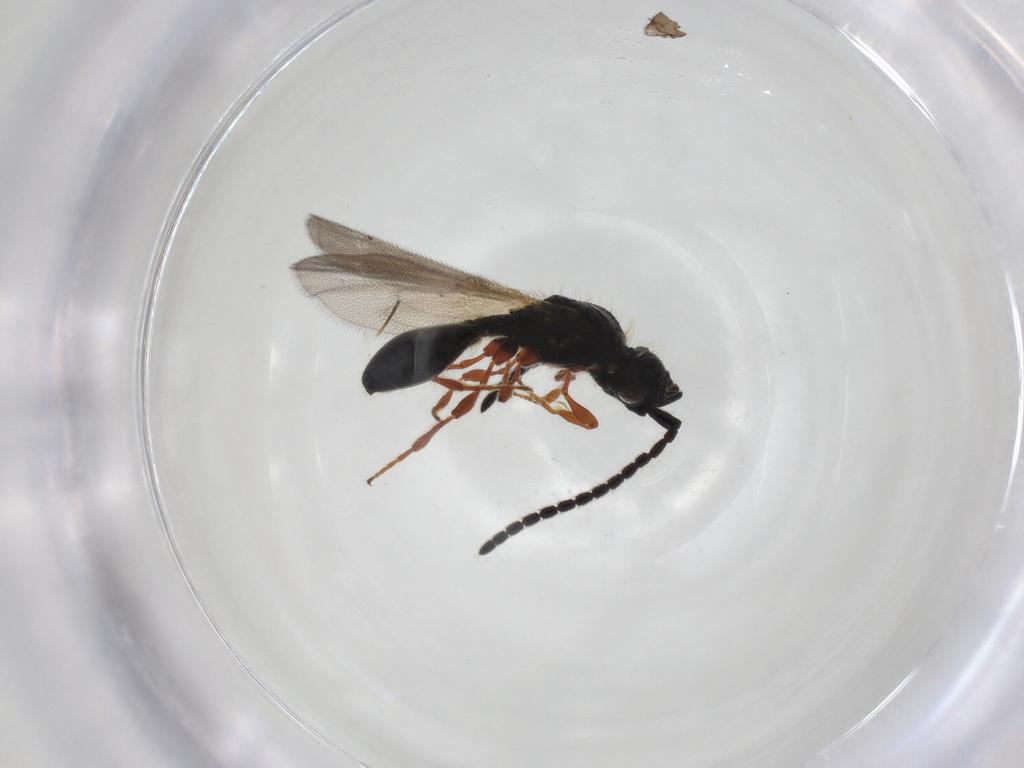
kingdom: Animalia
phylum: Arthropoda
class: Insecta
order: Hymenoptera
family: Diapriidae
